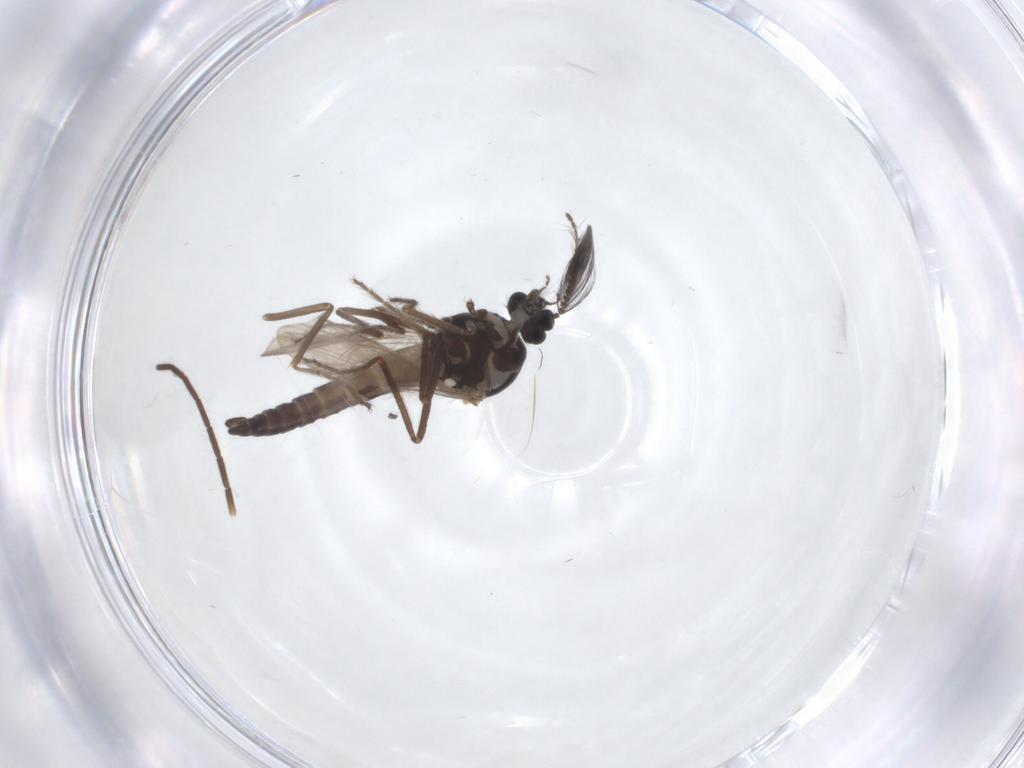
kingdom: Animalia
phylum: Arthropoda
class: Insecta
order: Diptera
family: Ceratopogonidae
